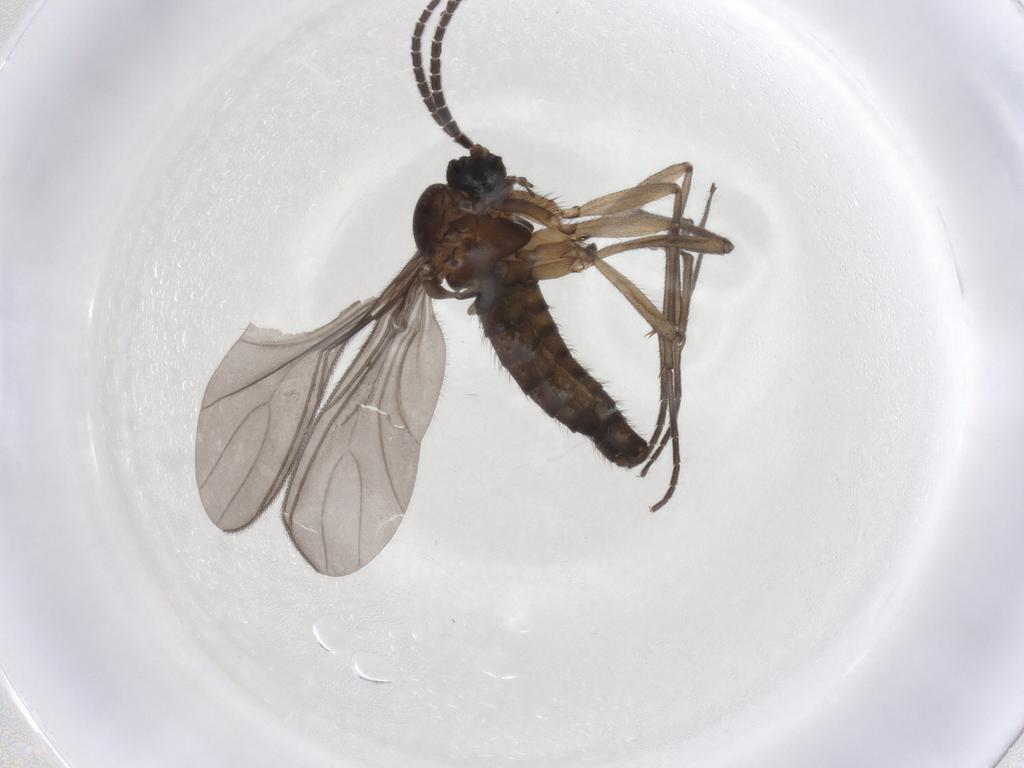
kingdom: Animalia
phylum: Arthropoda
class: Insecta
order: Diptera
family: Sciaridae
